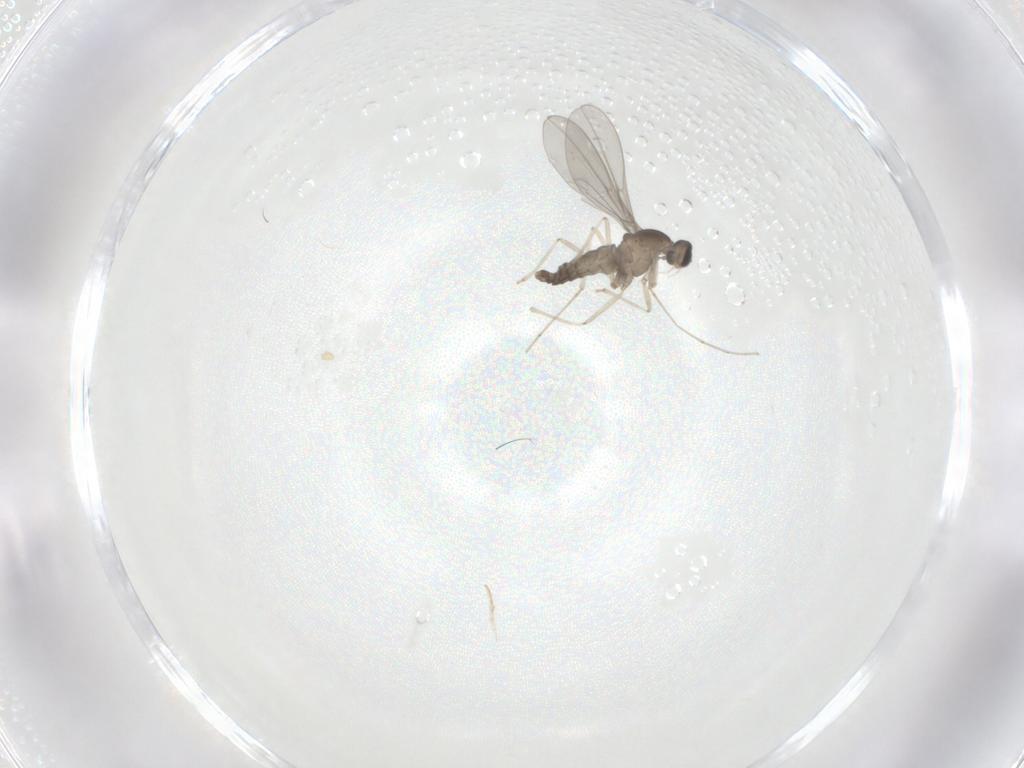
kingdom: Animalia
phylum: Arthropoda
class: Insecta
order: Diptera
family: Cecidomyiidae
